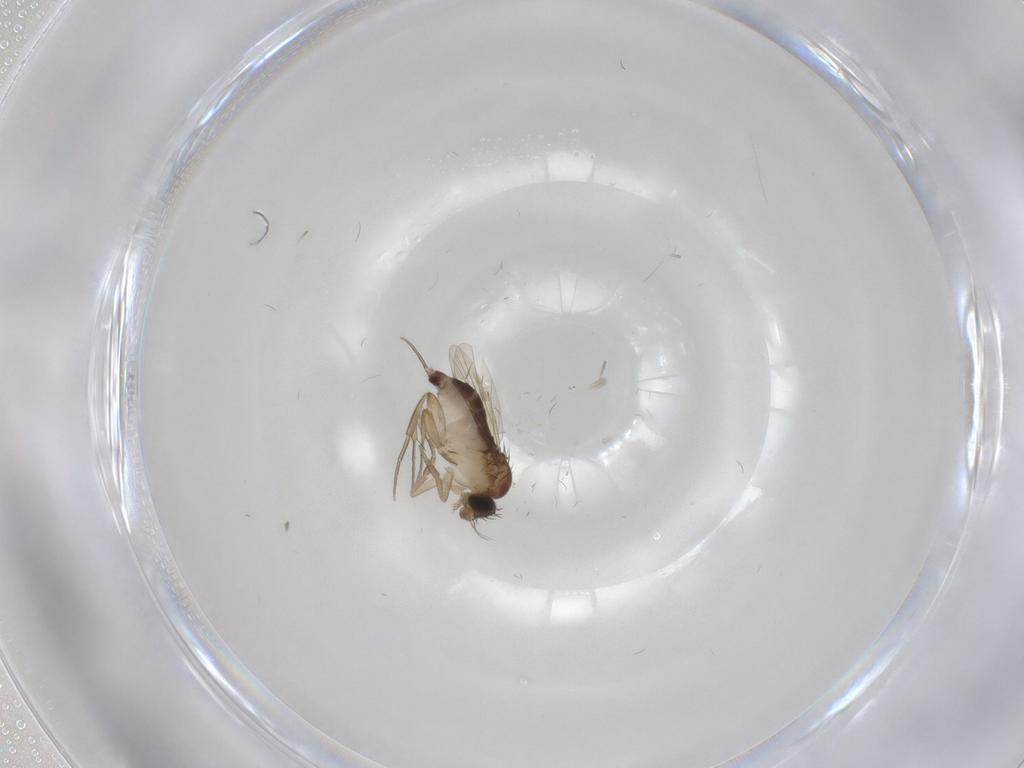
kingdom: Animalia
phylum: Arthropoda
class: Insecta
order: Diptera
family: Phoridae
